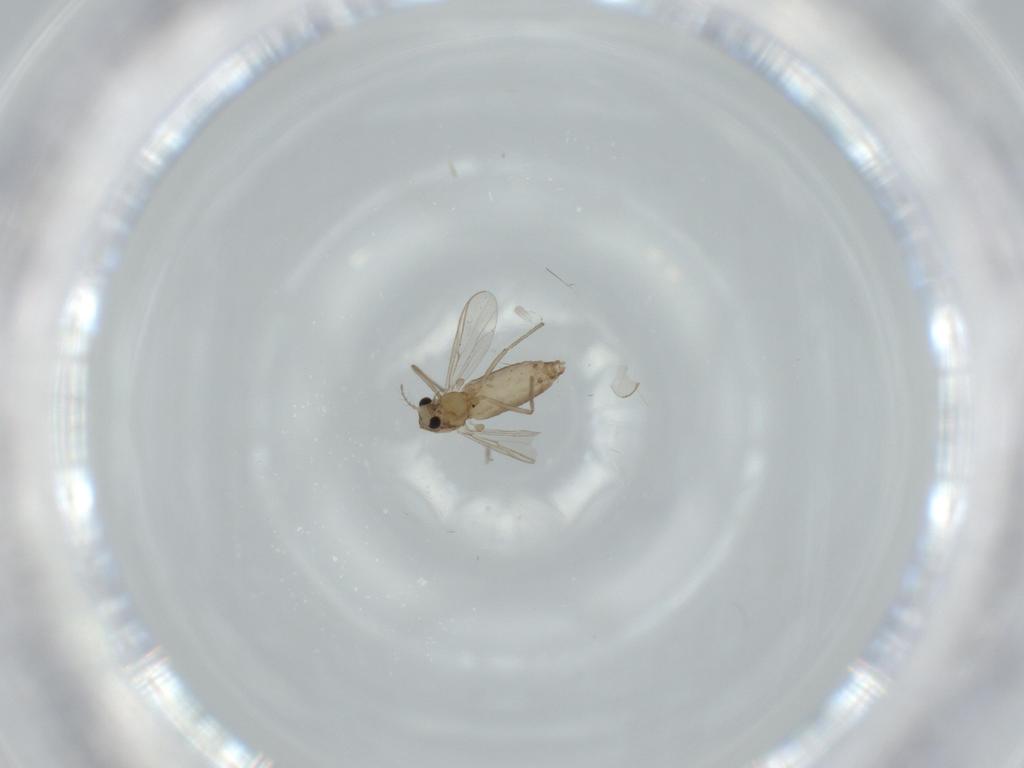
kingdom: Animalia
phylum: Arthropoda
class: Insecta
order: Diptera
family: Chironomidae
